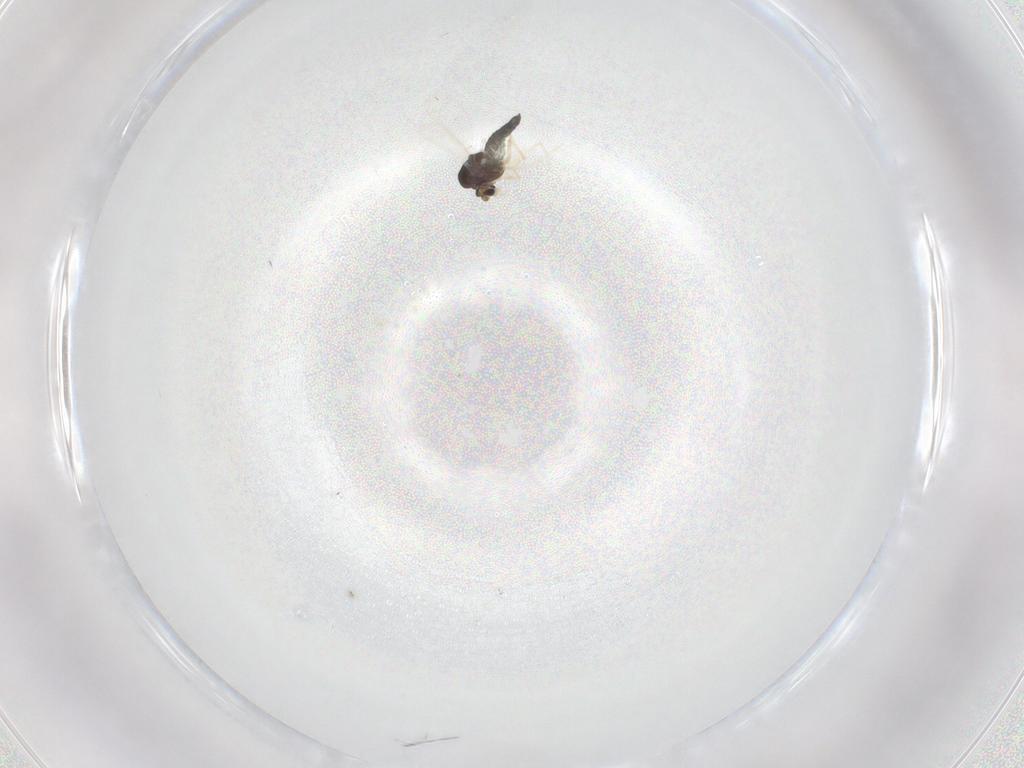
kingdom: Animalia
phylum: Arthropoda
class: Insecta
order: Diptera
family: Chironomidae
